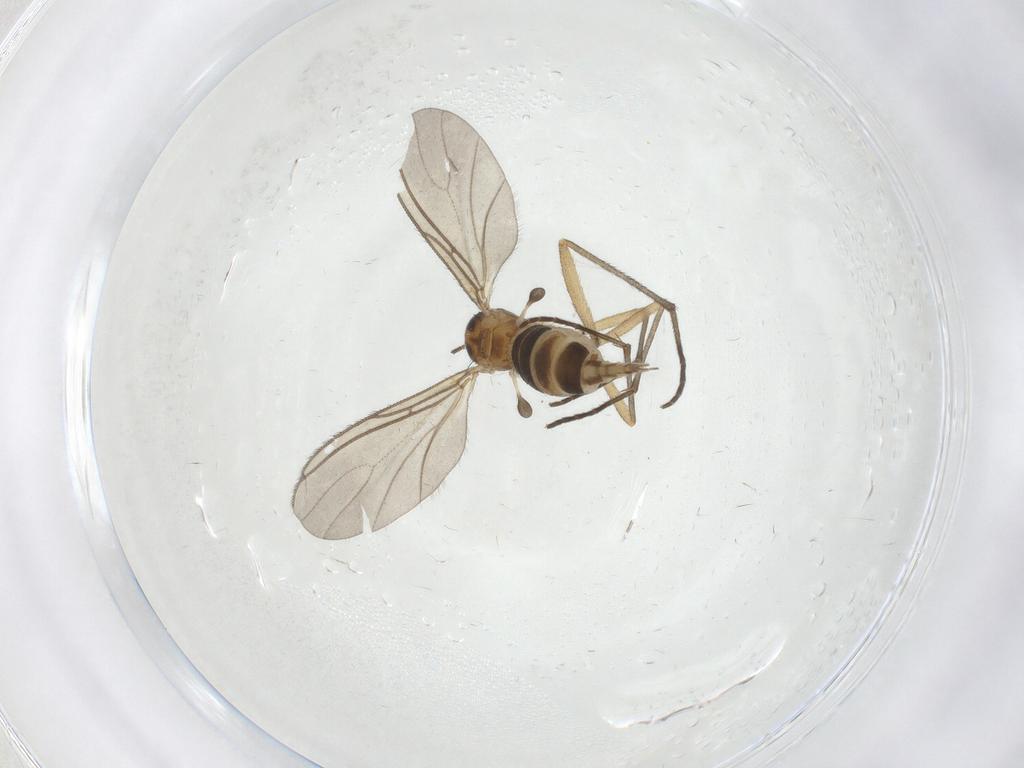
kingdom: Animalia
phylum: Arthropoda
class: Insecta
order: Diptera
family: Sciaridae
